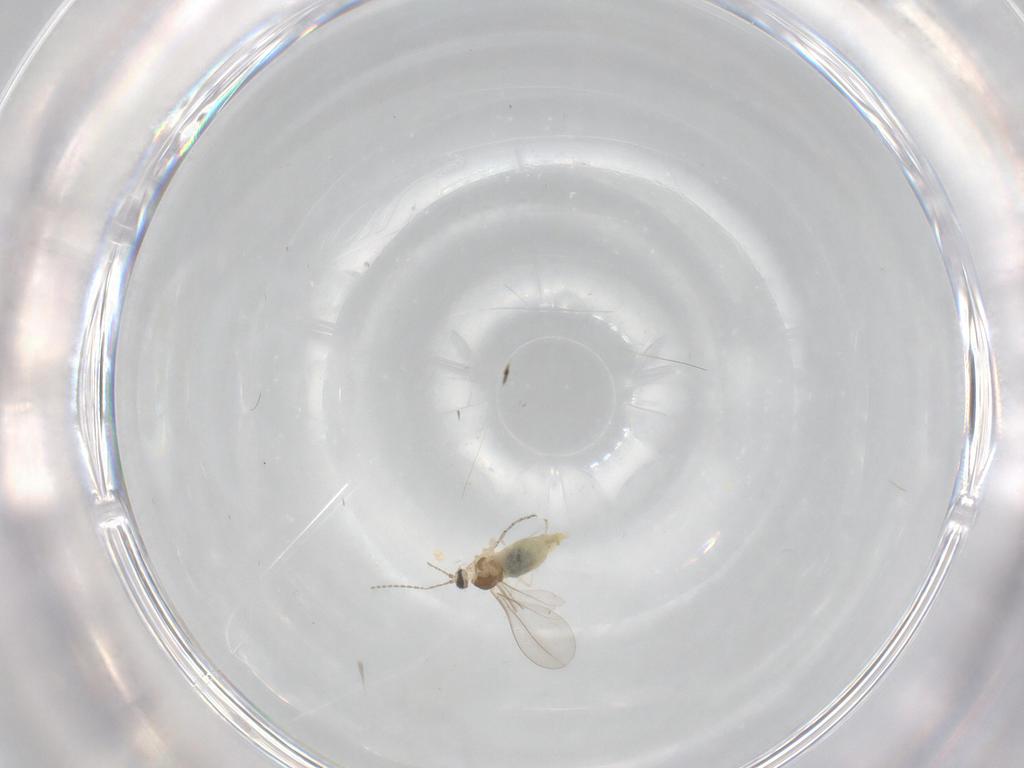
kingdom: Animalia
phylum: Arthropoda
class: Insecta
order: Diptera
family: Cecidomyiidae
